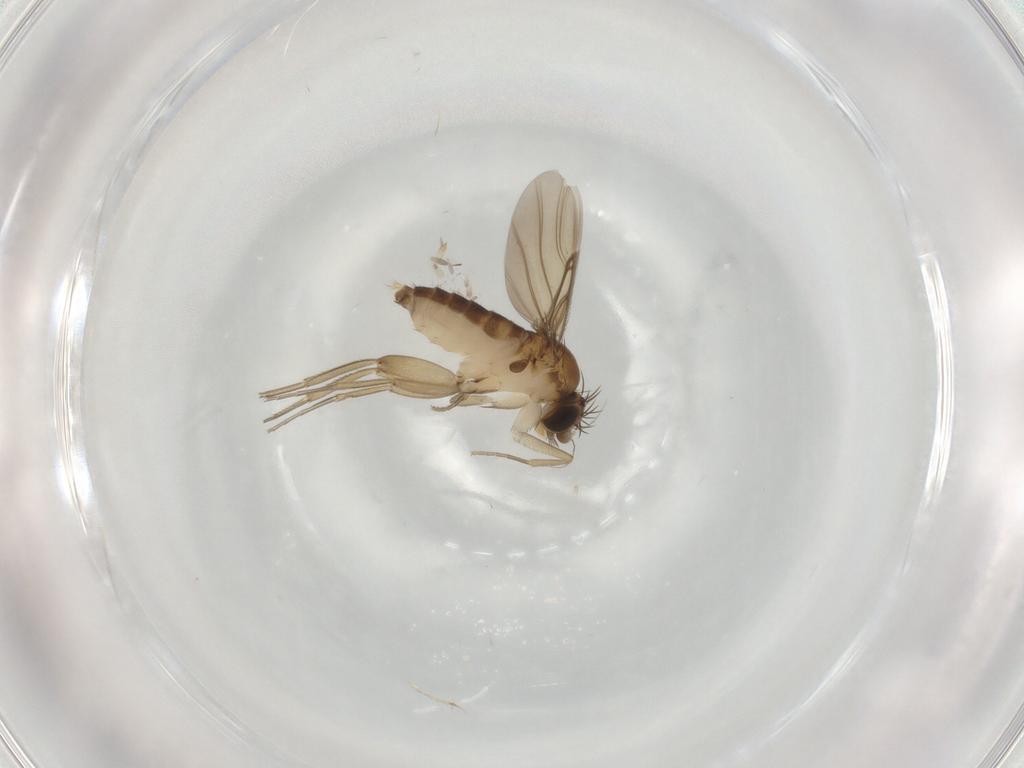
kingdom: Animalia
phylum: Arthropoda
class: Insecta
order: Diptera
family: Phoridae
